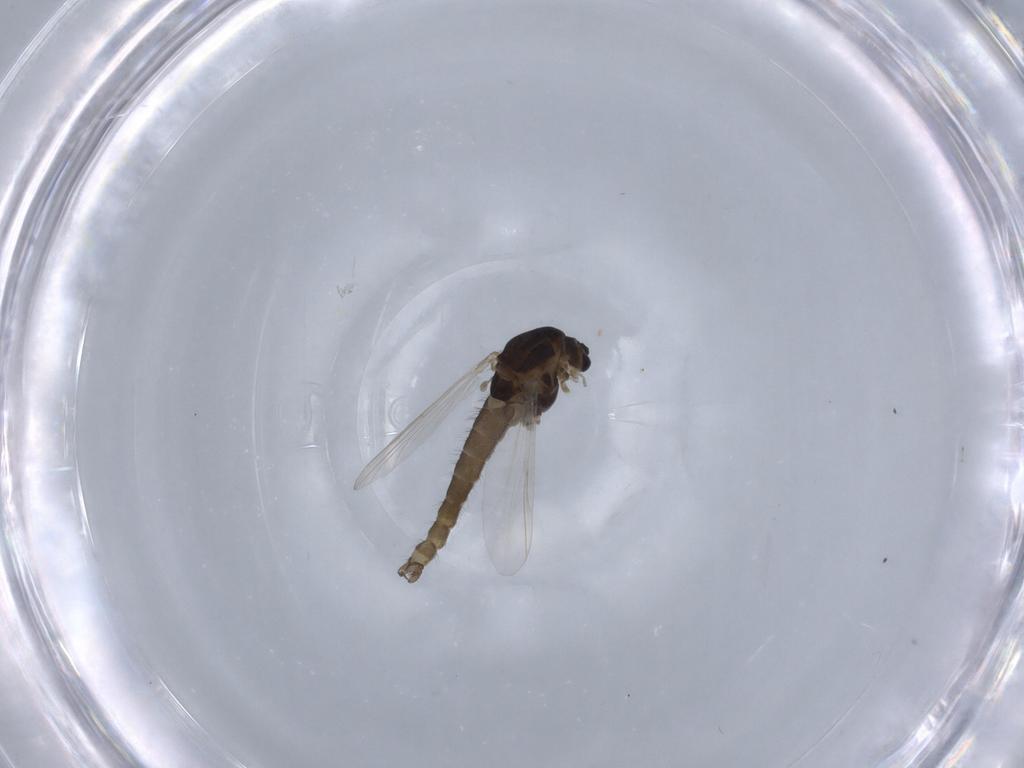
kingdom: Animalia
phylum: Arthropoda
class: Insecta
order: Diptera
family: Chironomidae
